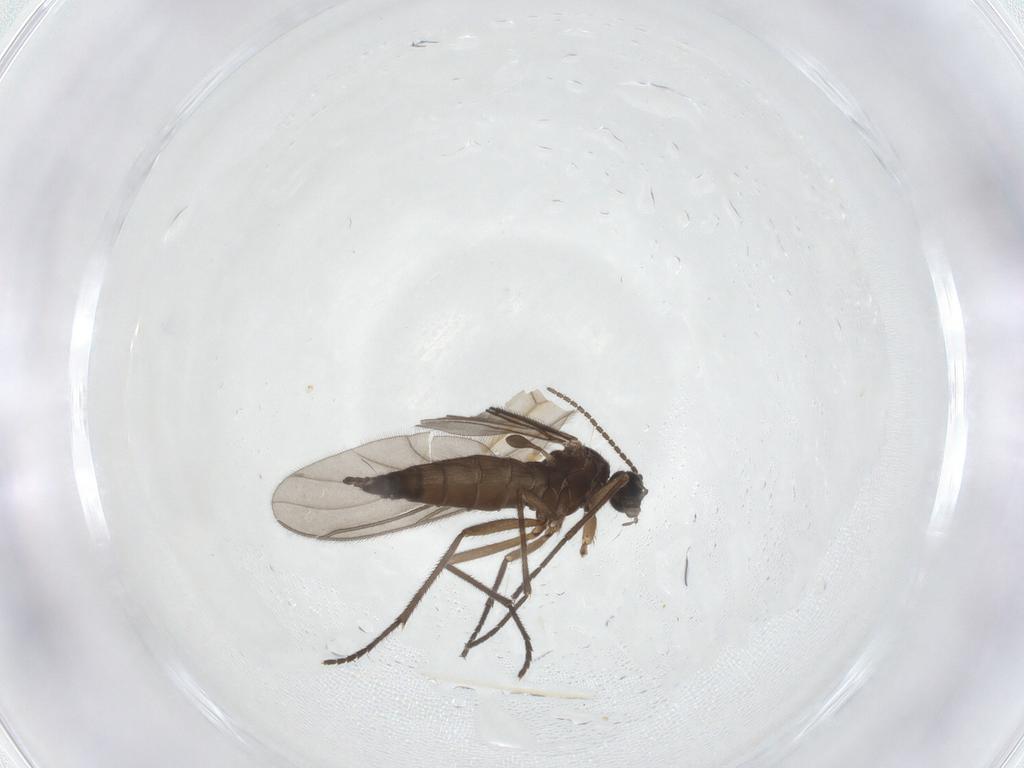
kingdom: Animalia
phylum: Arthropoda
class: Insecta
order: Diptera
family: Sciaridae
